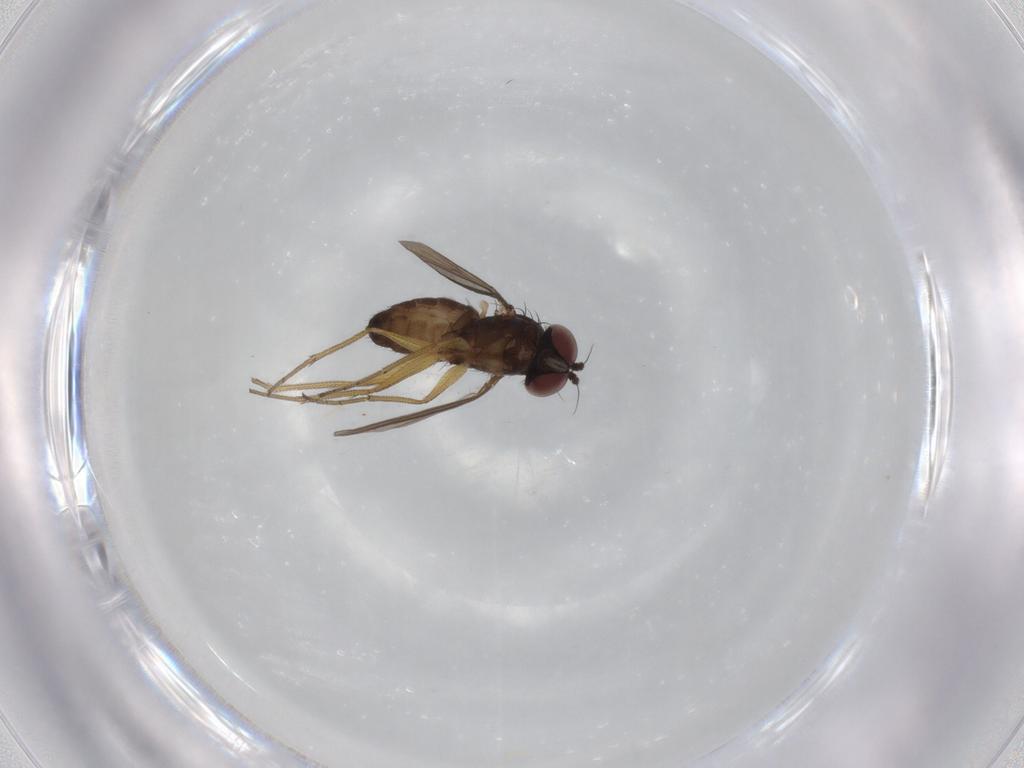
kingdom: Animalia
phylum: Arthropoda
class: Insecta
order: Diptera
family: Dolichopodidae
